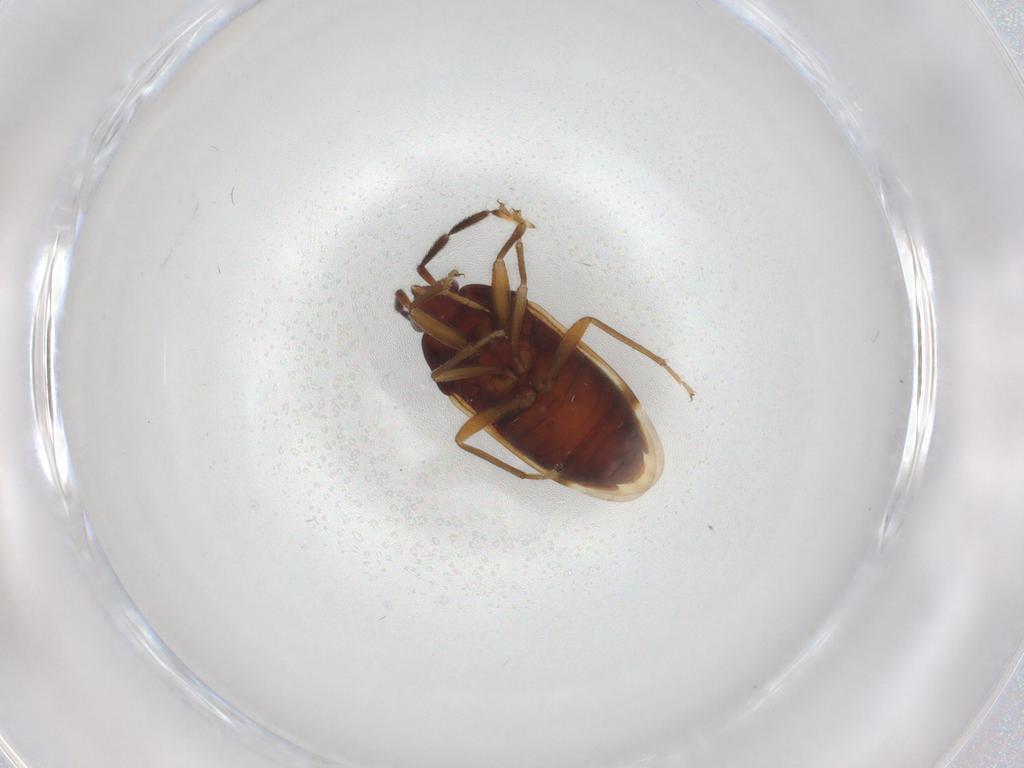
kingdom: Animalia
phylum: Arthropoda
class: Insecta
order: Hemiptera
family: Rhyparochromidae
